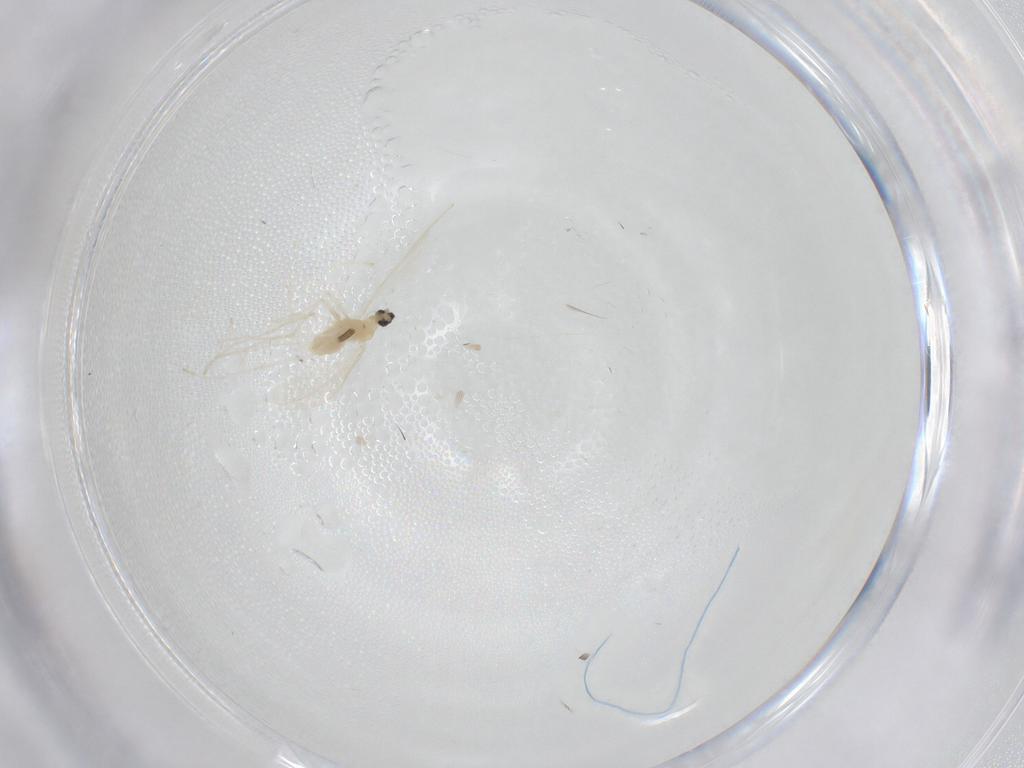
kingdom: Animalia
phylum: Arthropoda
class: Insecta
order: Diptera
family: Cecidomyiidae
